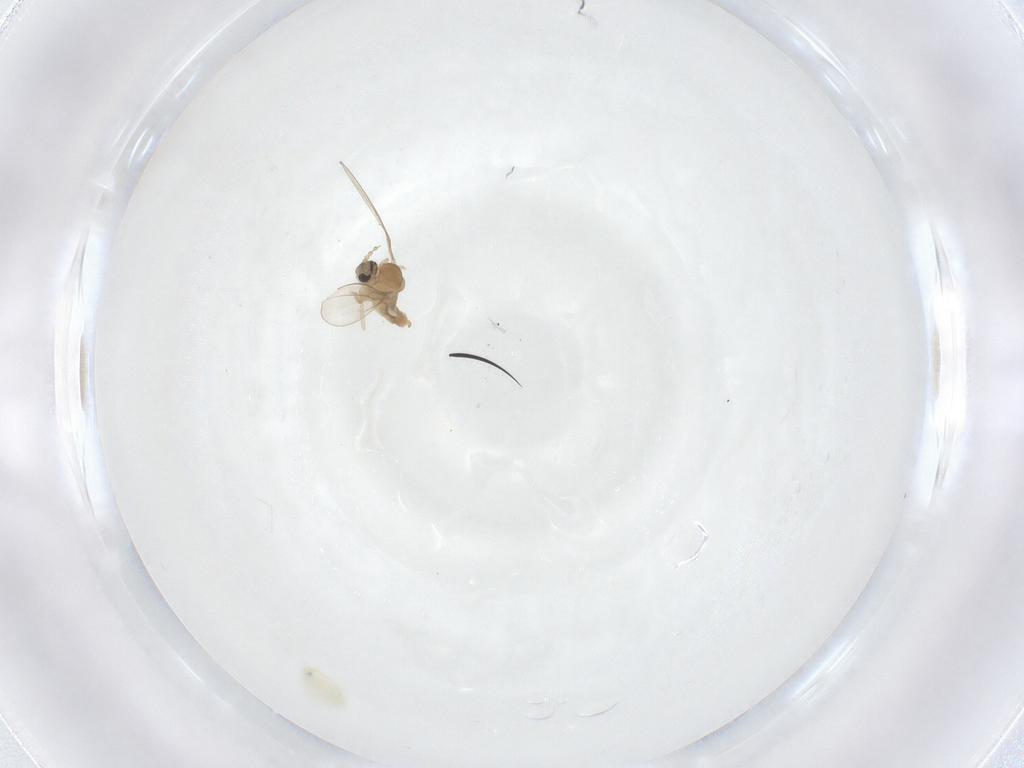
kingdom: Animalia
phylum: Arthropoda
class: Insecta
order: Diptera
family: Cecidomyiidae
